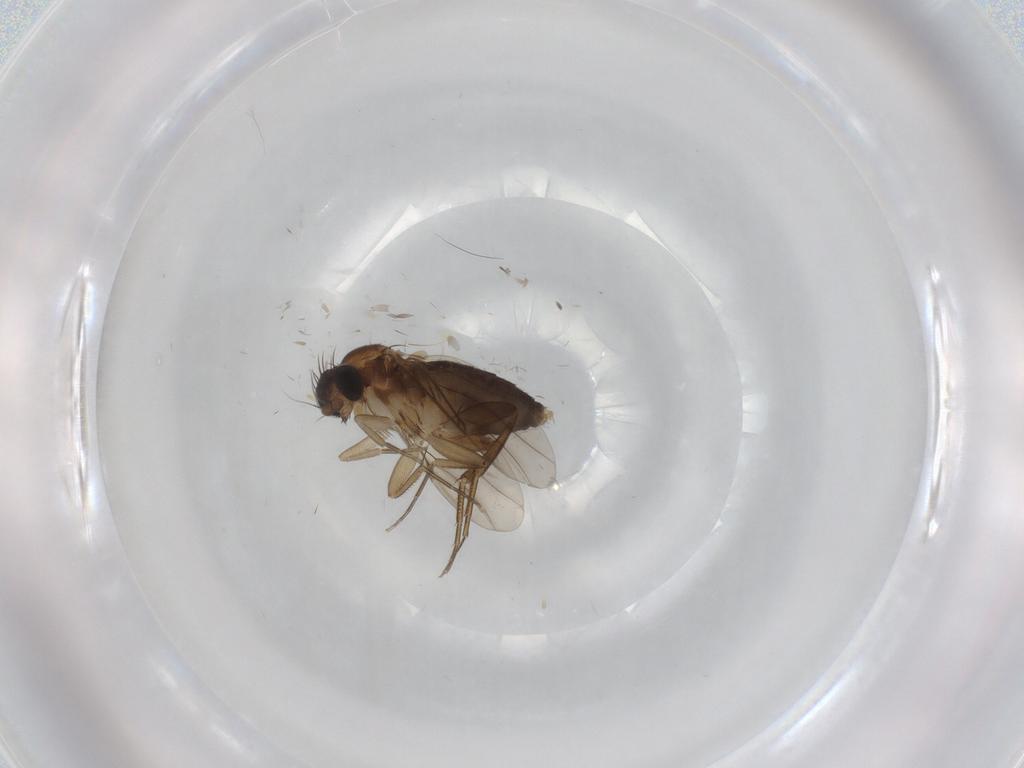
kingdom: Animalia
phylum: Arthropoda
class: Insecta
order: Diptera
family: Phoridae
